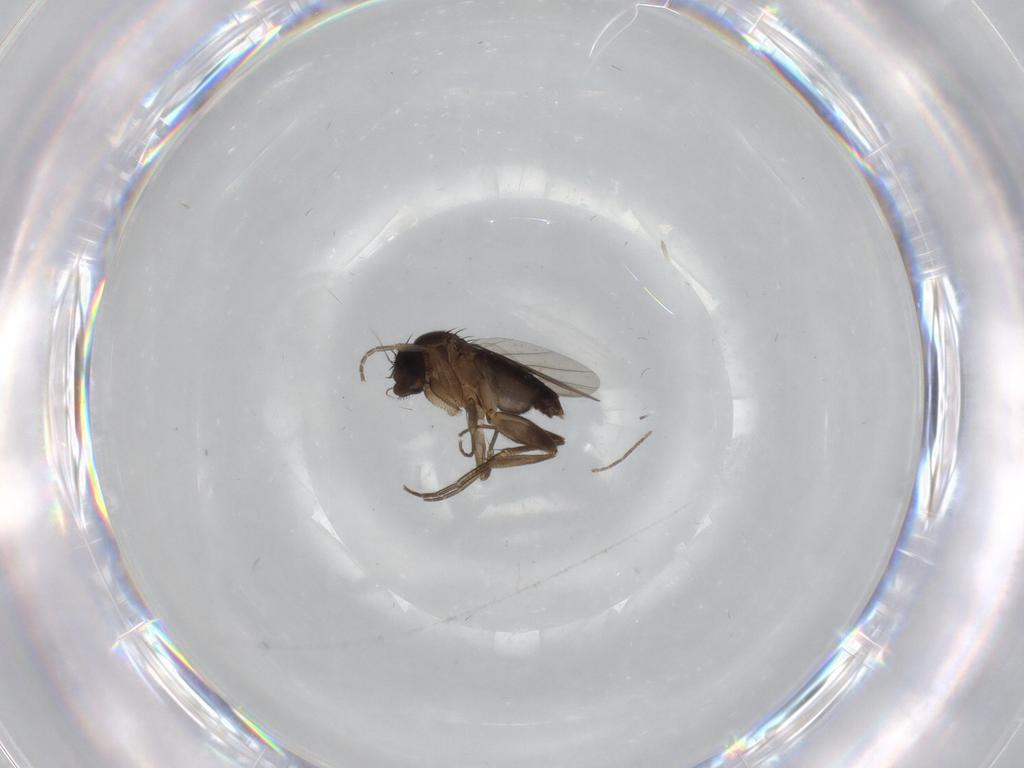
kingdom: Animalia
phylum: Arthropoda
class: Insecta
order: Diptera
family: Phoridae
